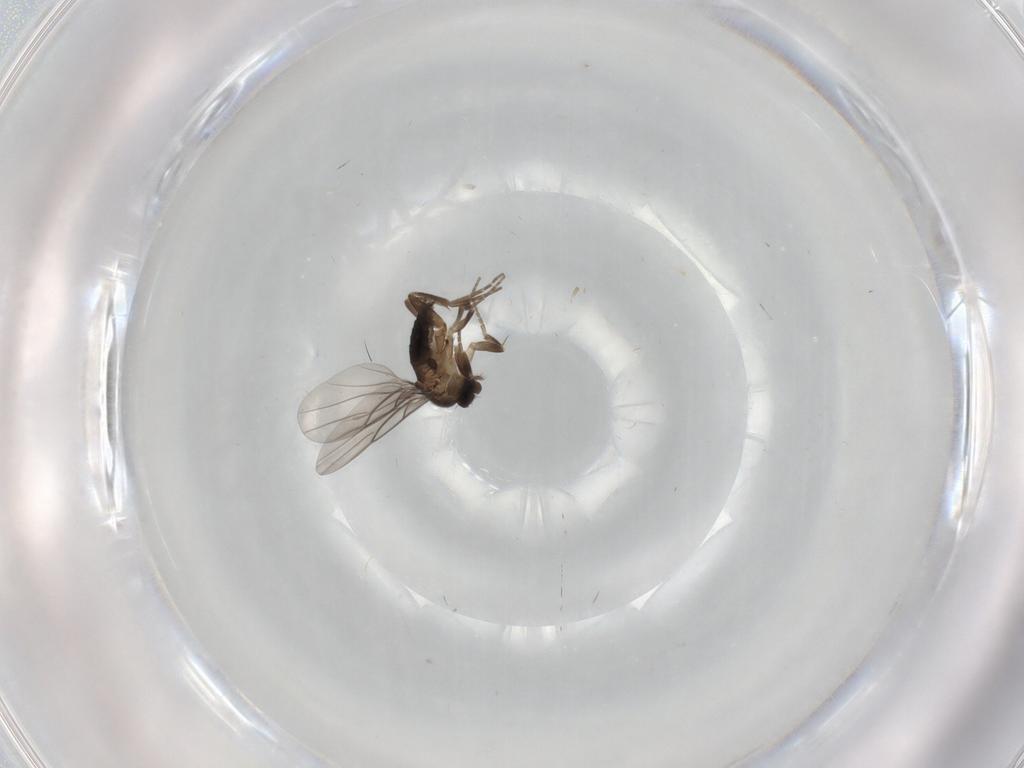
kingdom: Animalia
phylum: Arthropoda
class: Insecta
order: Diptera
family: Phoridae
